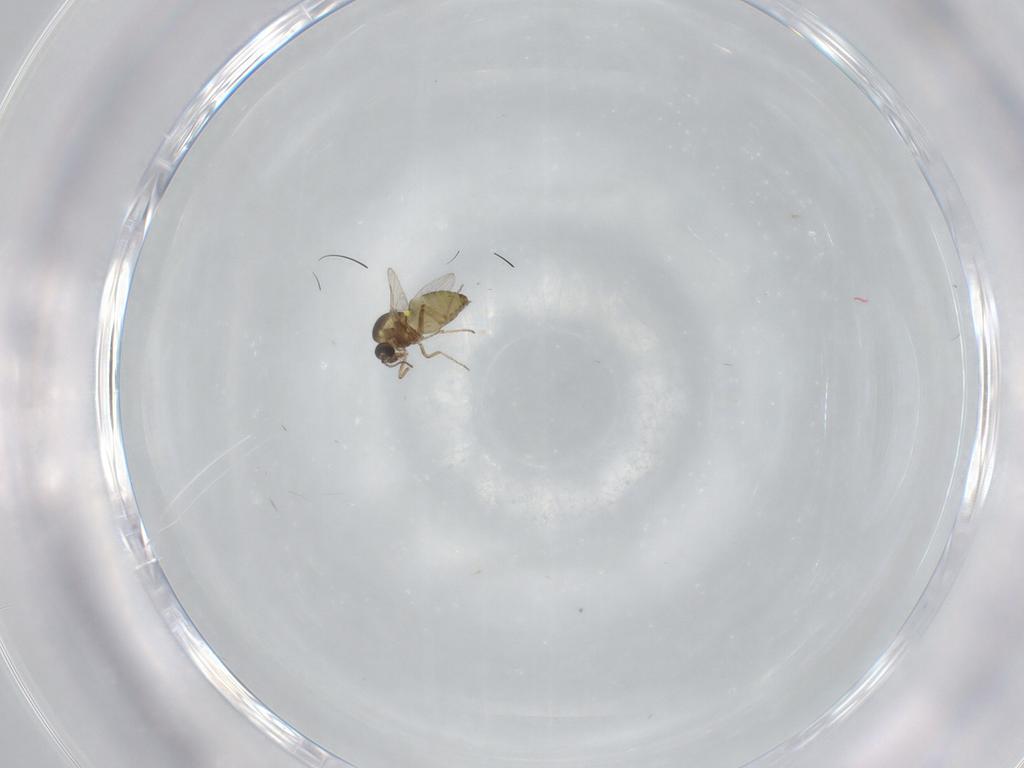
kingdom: Animalia
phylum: Arthropoda
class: Insecta
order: Diptera
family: Ceratopogonidae
